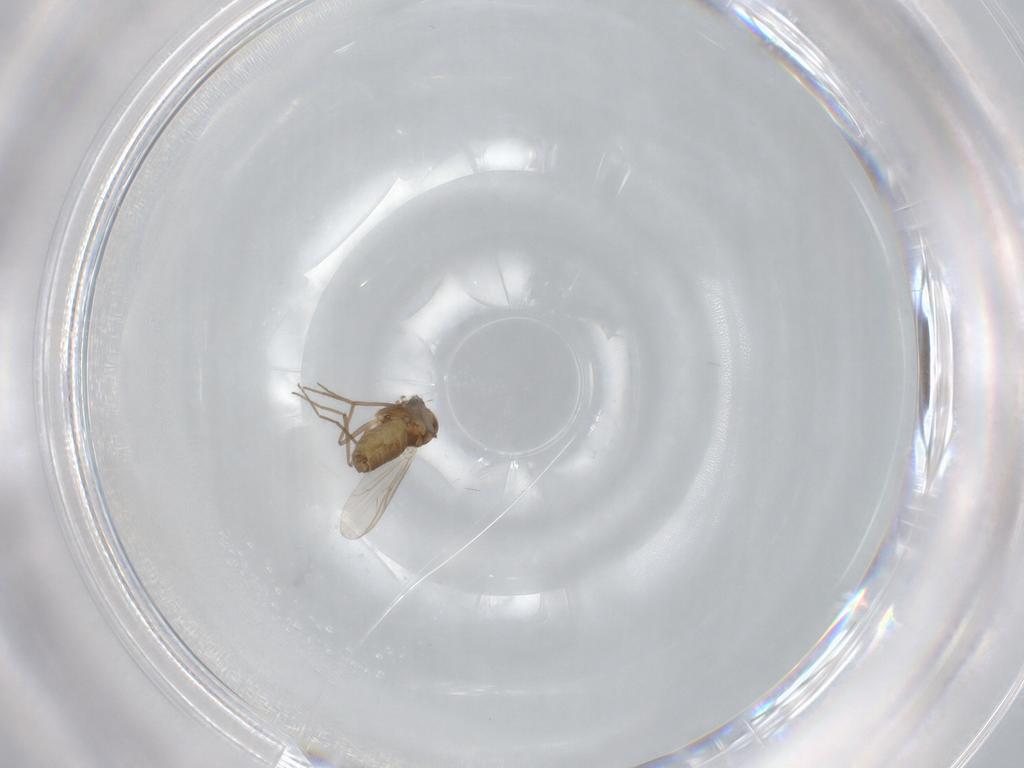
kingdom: Animalia
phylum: Arthropoda
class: Insecta
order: Diptera
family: Chironomidae
